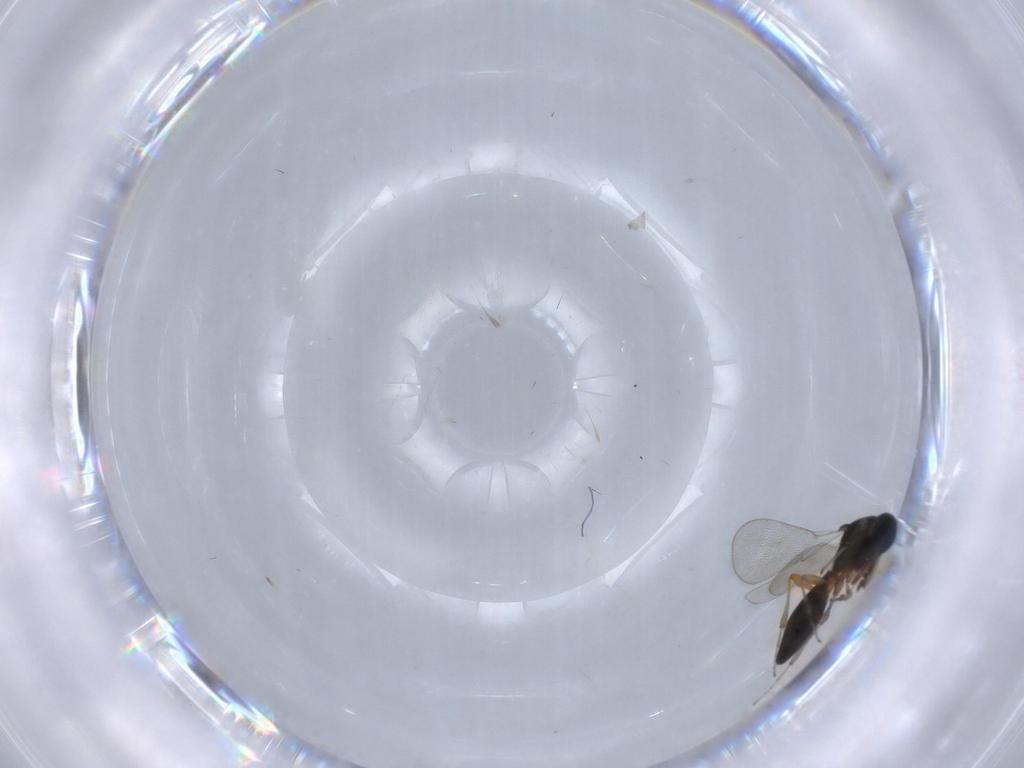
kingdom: Animalia
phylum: Arthropoda
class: Insecta
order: Hymenoptera
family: Platygastridae
